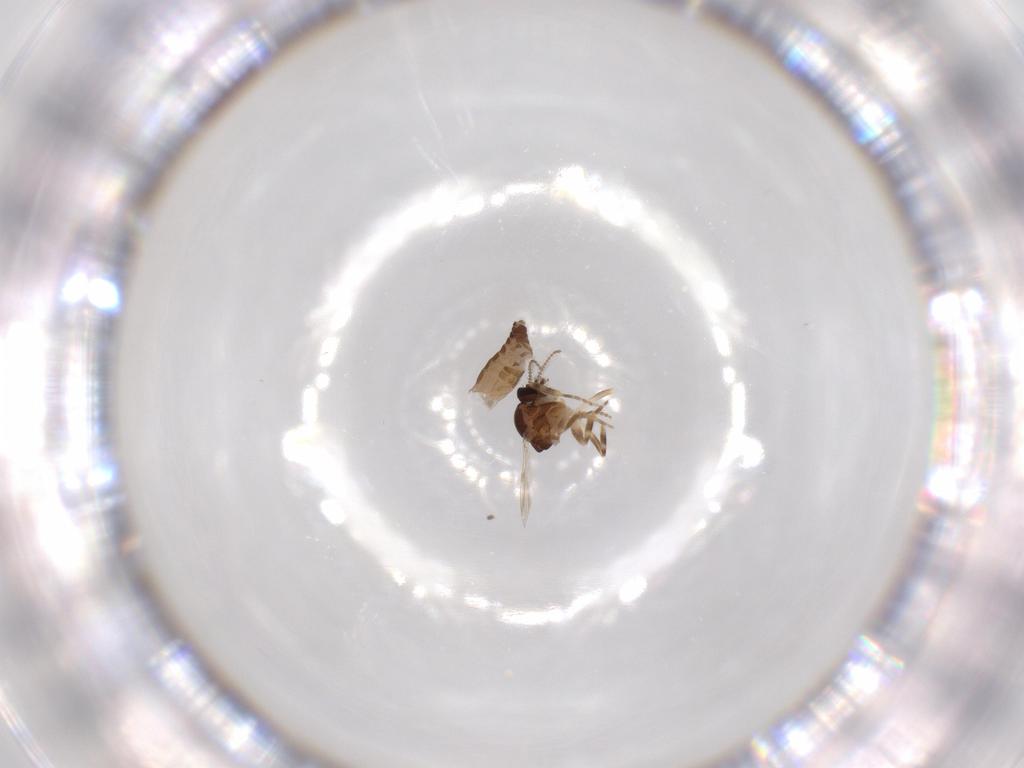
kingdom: Animalia
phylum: Arthropoda
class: Insecta
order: Diptera
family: Ceratopogonidae
